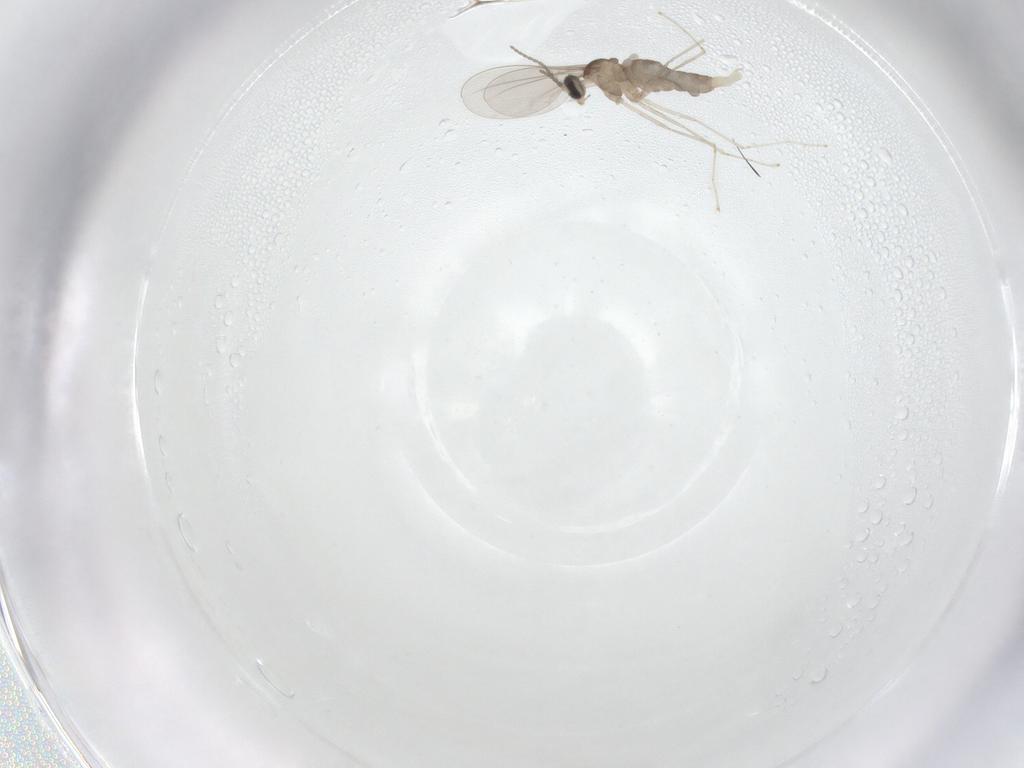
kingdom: Animalia
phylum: Arthropoda
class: Insecta
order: Diptera
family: Cecidomyiidae
